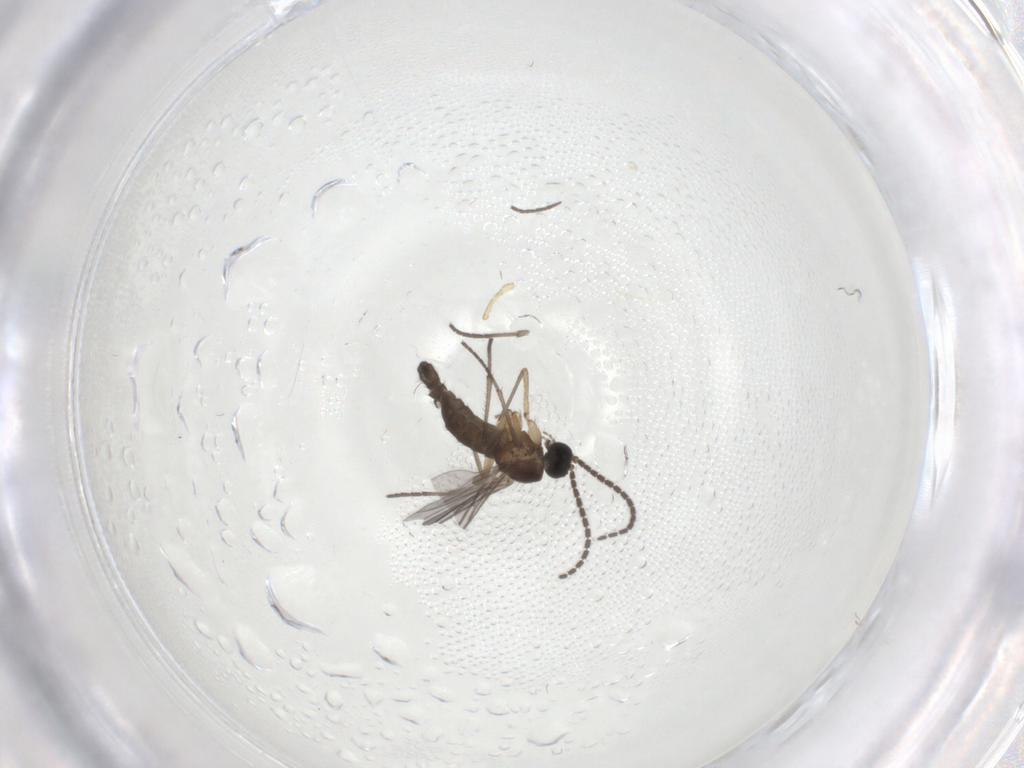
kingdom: Animalia
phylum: Arthropoda
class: Insecta
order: Diptera
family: Sciaridae
